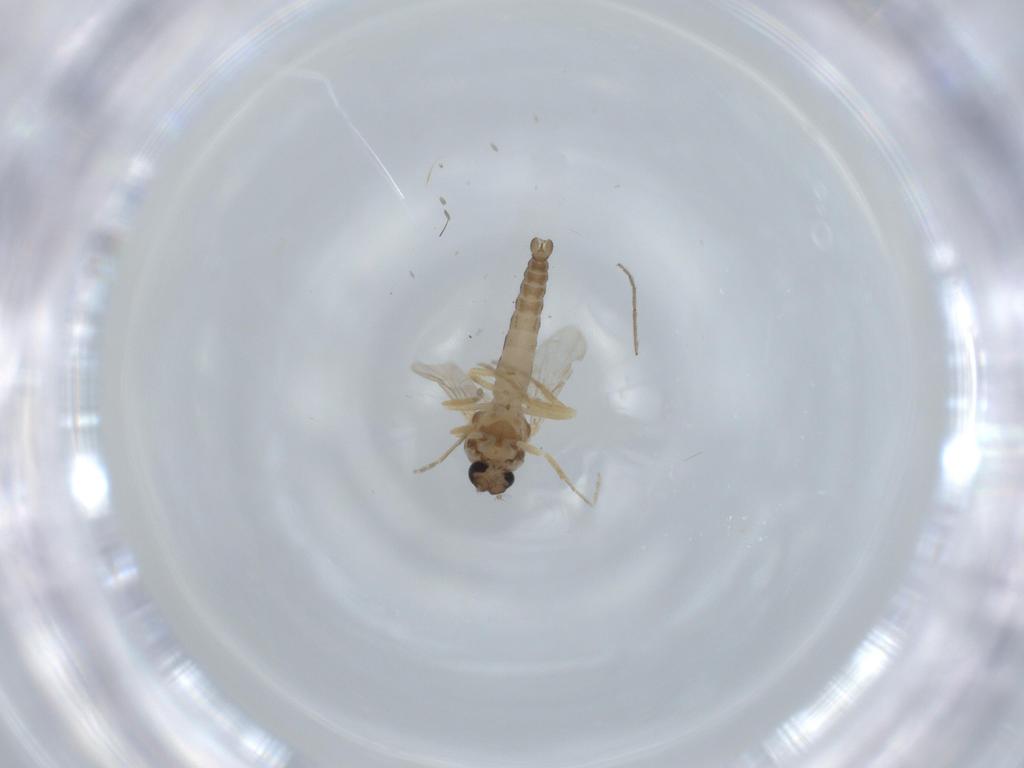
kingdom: Animalia
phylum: Arthropoda
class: Insecta
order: Diptera
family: Ceratopogonidae
